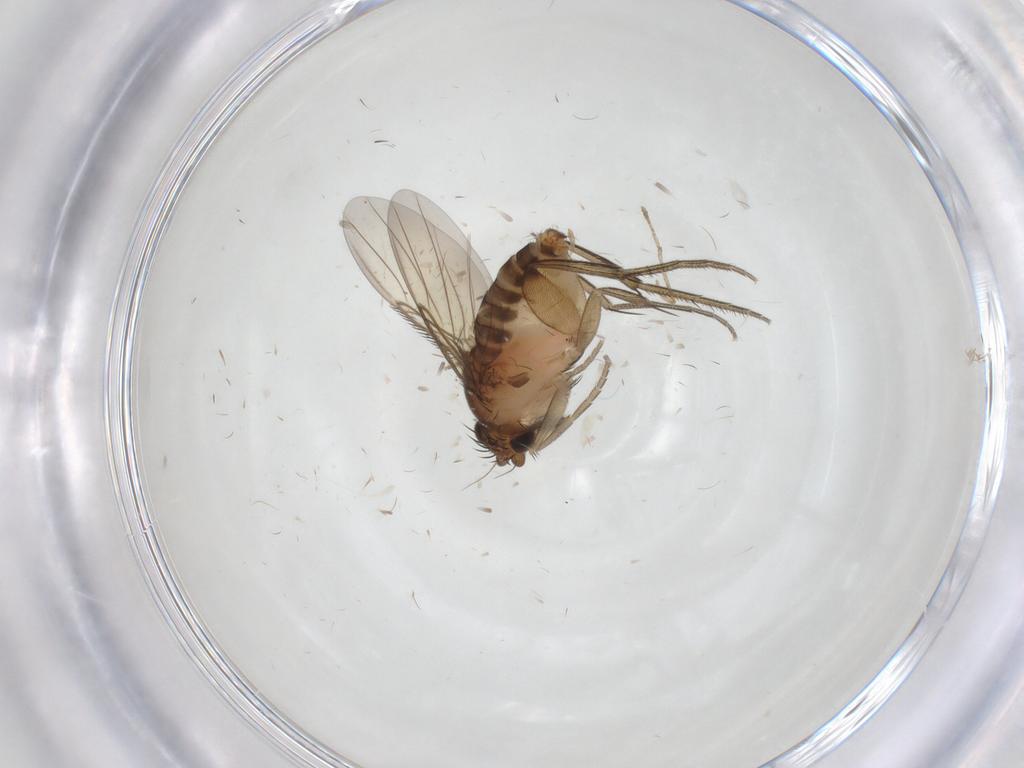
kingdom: Animalia
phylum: Arthropoda
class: Insecta
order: Diptera
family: Phoridae
